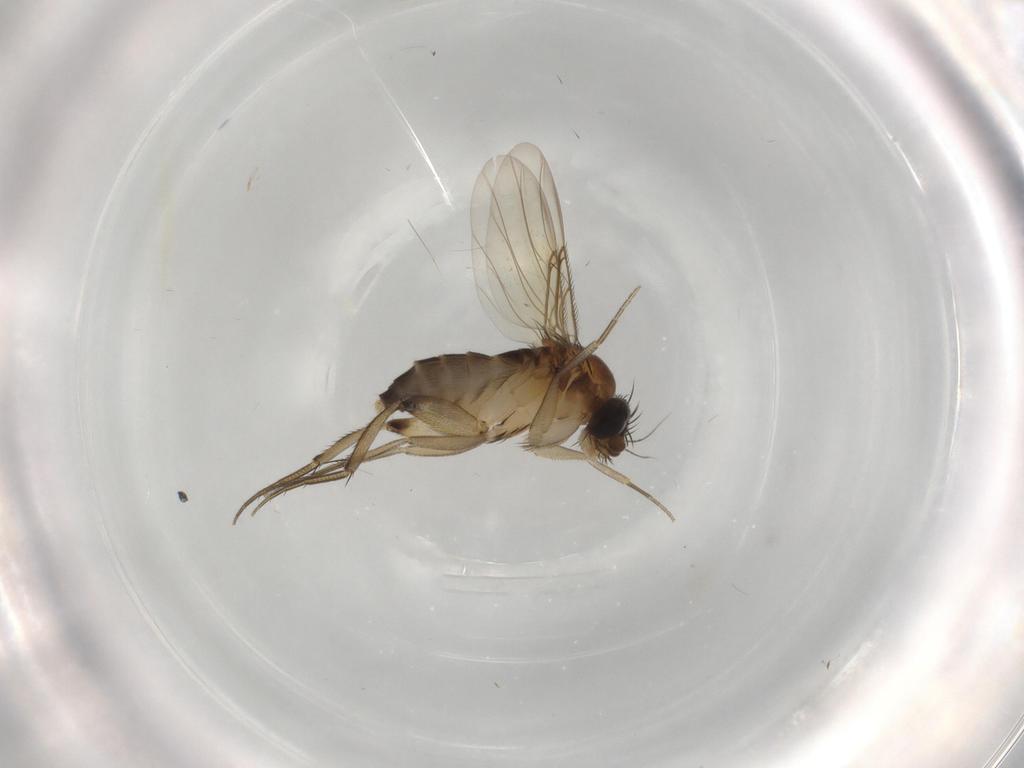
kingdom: Animalia
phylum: Arthropoda
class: Insecta
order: Diptera
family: Phoridae
